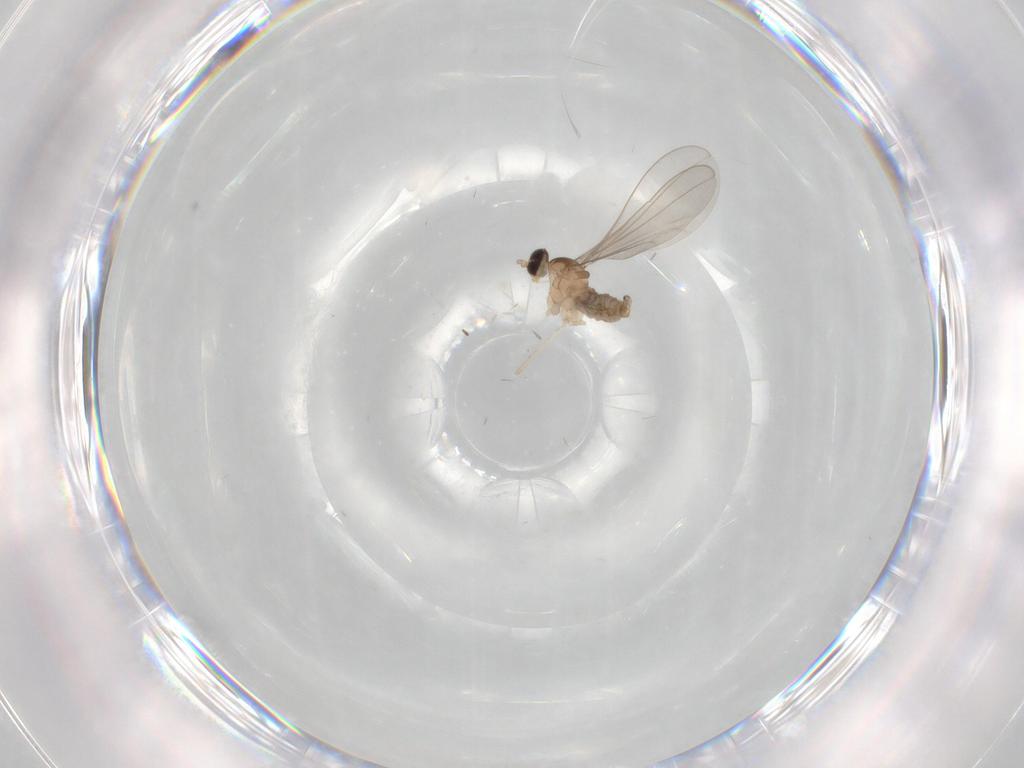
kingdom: Animalia
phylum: Arthropoda
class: Insecta
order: Diptera
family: Cecidomyiidae
